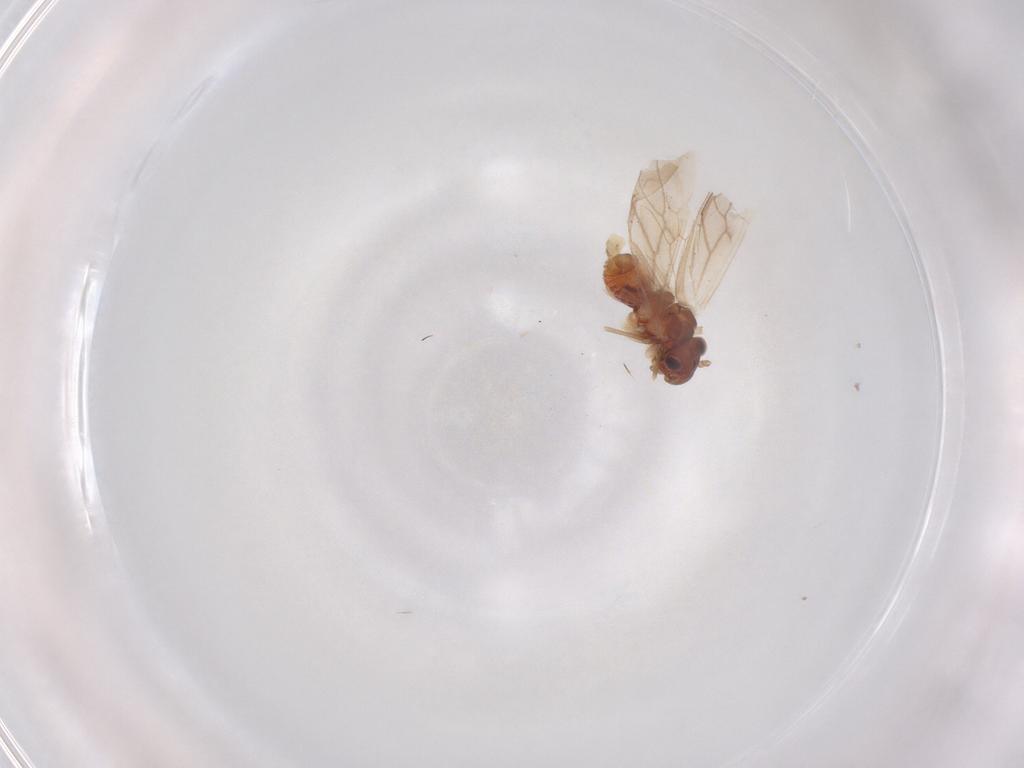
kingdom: Animalia
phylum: Arthropoda
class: Insecta
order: Psocodea
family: Caeciliusidae
